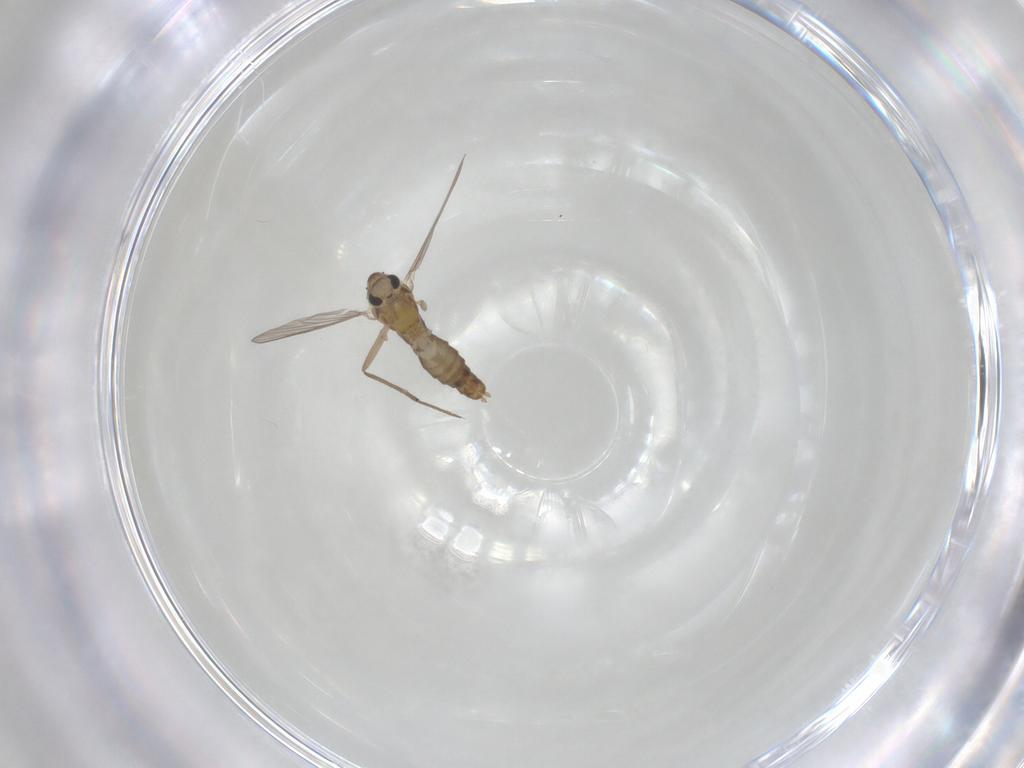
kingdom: Animalia
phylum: Arthropoda
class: Insecta
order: Diptera
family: Chironomidae
